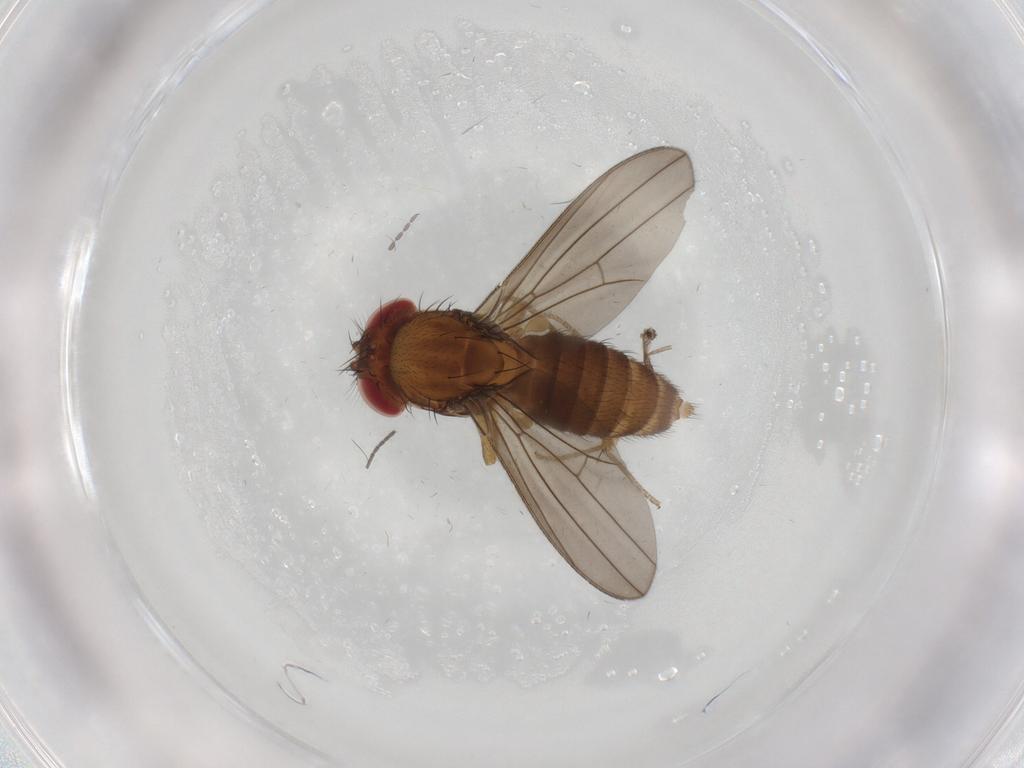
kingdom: Animalia
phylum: Arthropoda
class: Insecta
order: Diptera
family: Drosophilidae
